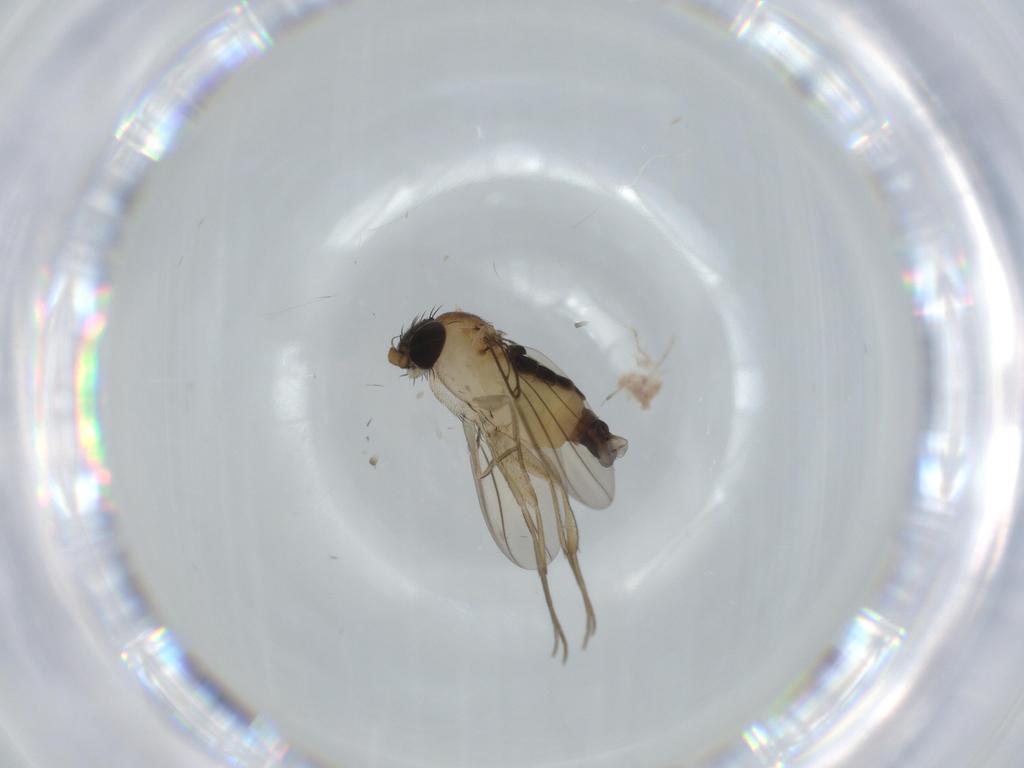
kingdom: Animalia
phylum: Arthropoda
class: Insecta
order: Diptera
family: Phoridae
